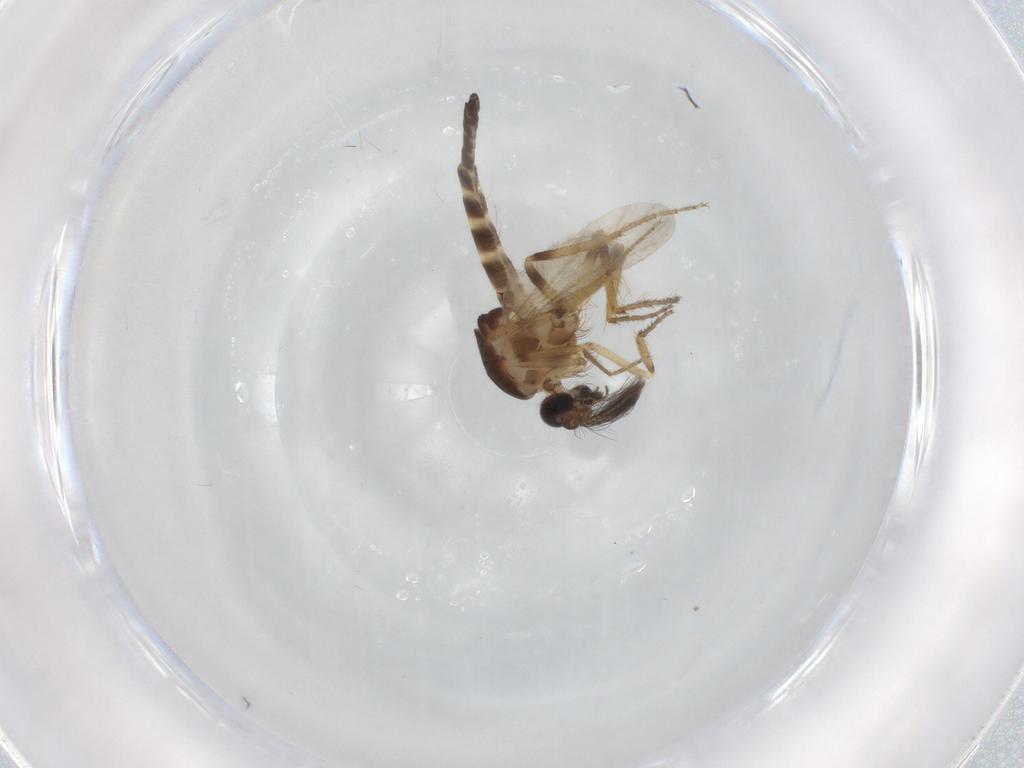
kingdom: Animalia
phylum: Arthropoda
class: Insecta
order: Diptera
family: Ceratopogonidae
